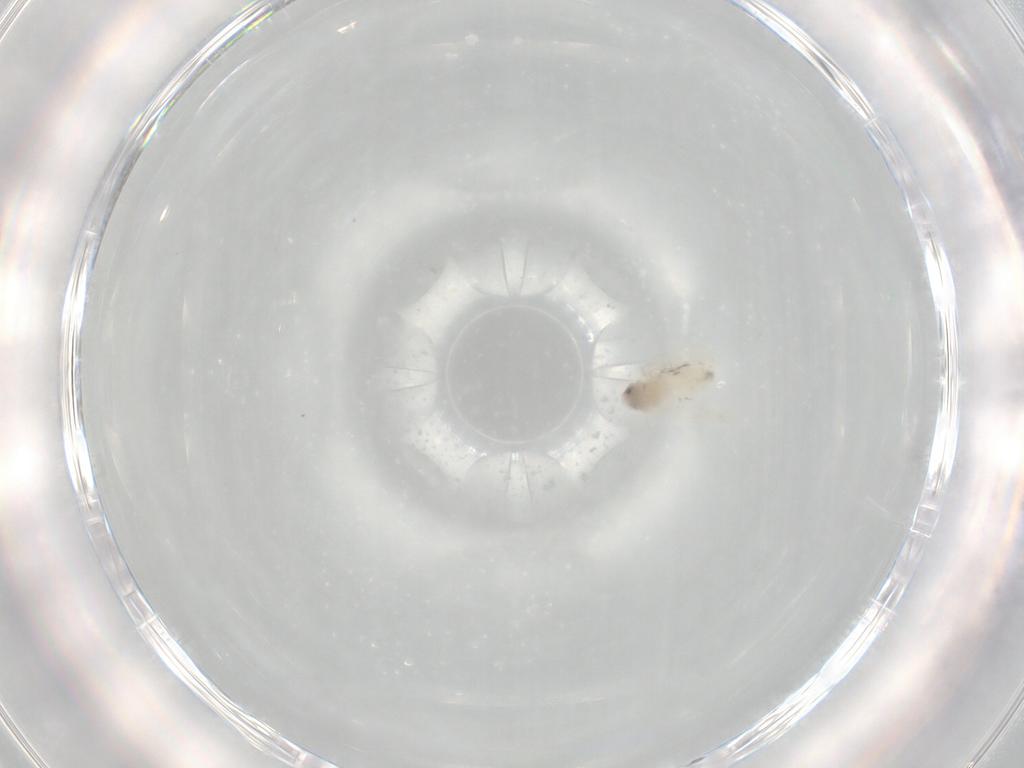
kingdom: Animalia
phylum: Arthropoda
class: Insecta
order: Hemiptera
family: Aleyrodidae
